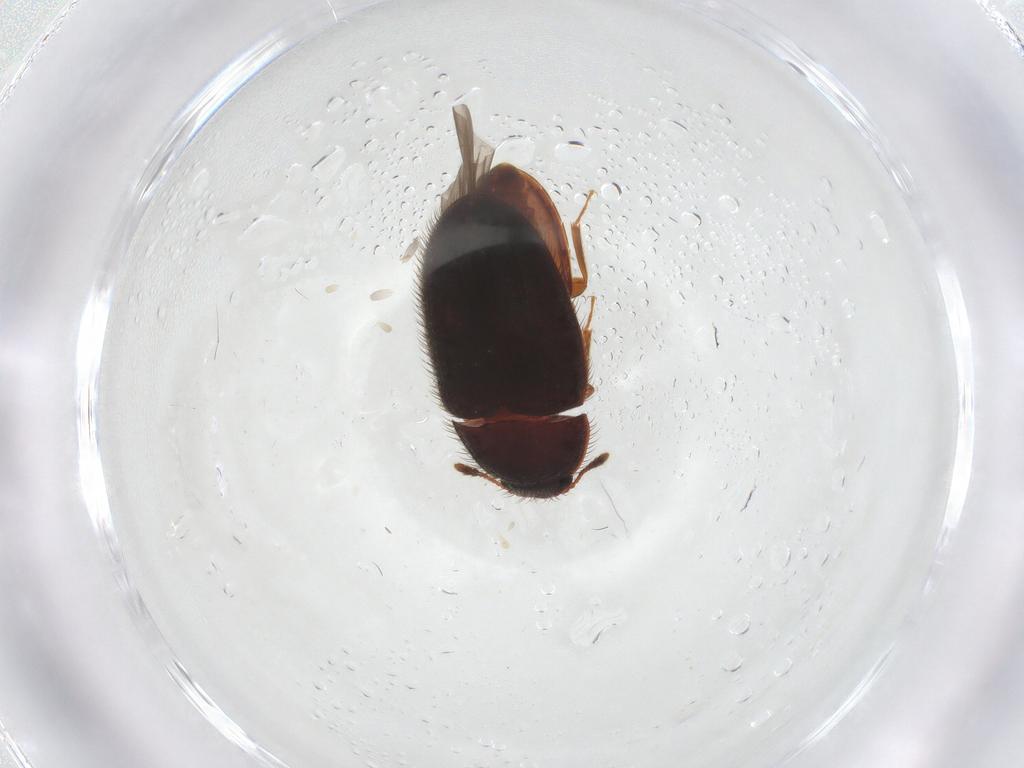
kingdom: Animalia
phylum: Arthropoda
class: Insecta
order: Coleoptera
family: Biphyllidae
